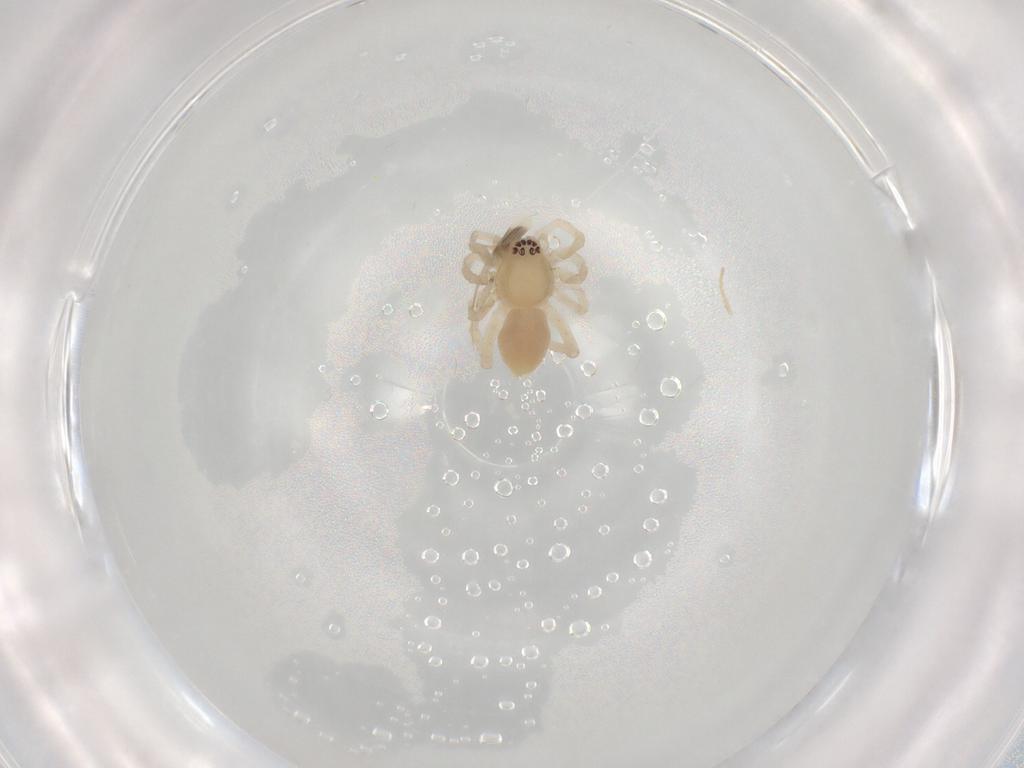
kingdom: Animalia
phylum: Arthropoda
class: Arachnida
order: Araneae
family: Anyphaenidae
